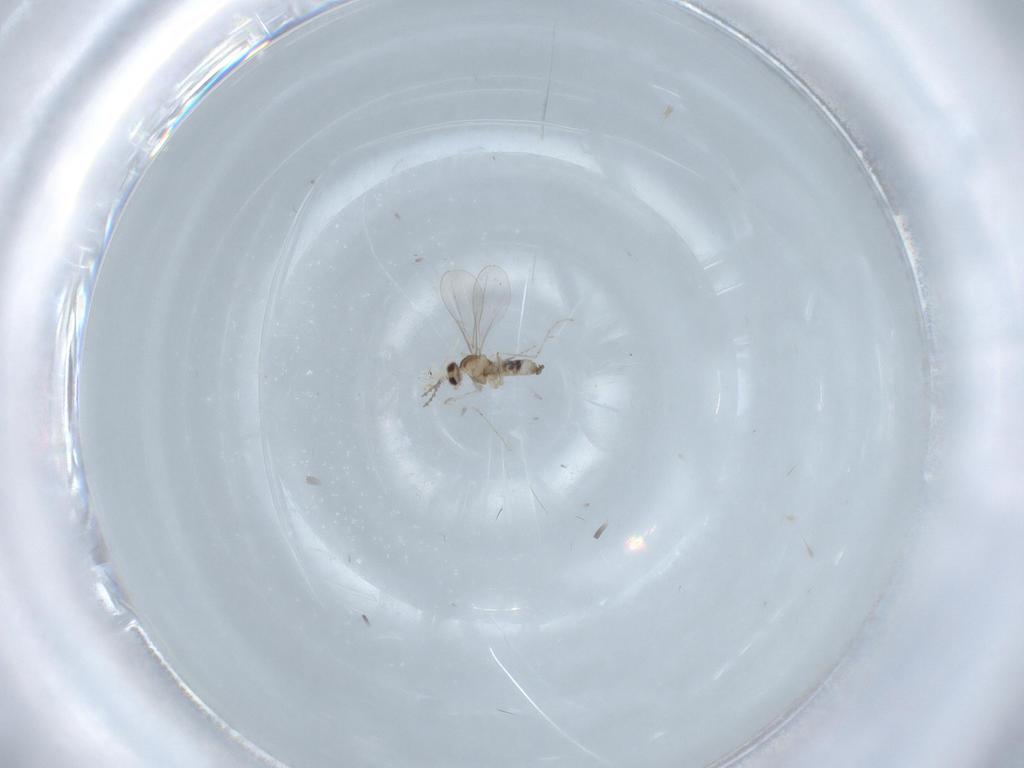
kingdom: Animalia
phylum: Arthropoda
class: Insecta
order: Diptera
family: Cecidomyiidae
